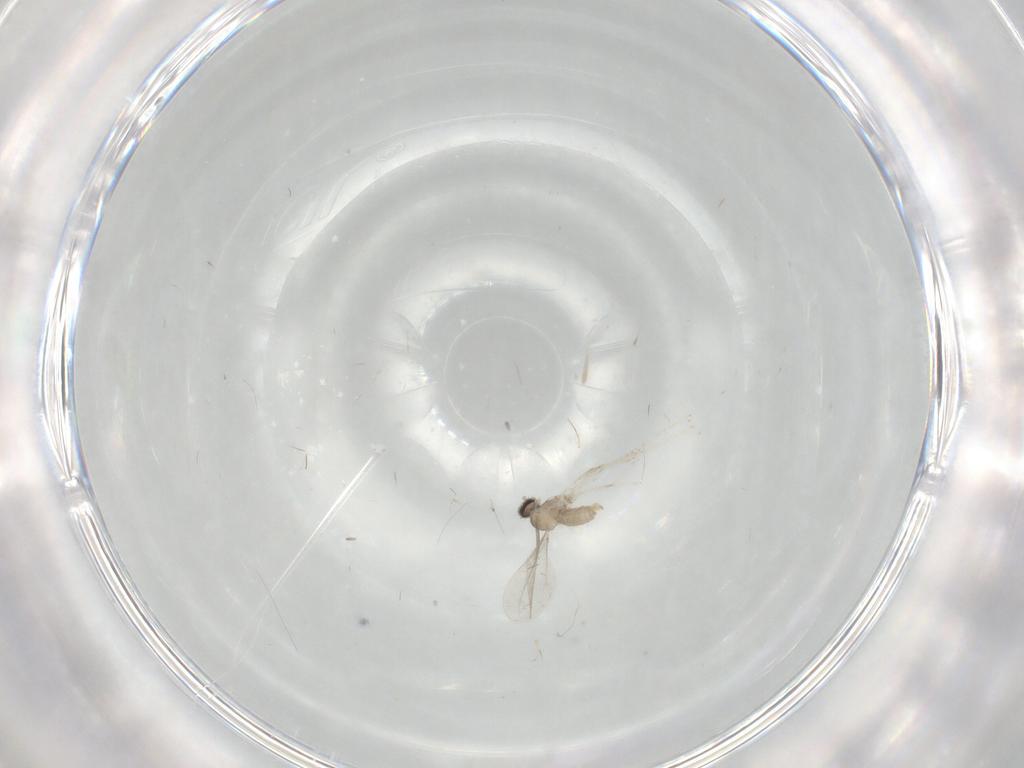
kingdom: Animalia
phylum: Arthropoda
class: Insecta
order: Diptera
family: Cecidomyiidae
